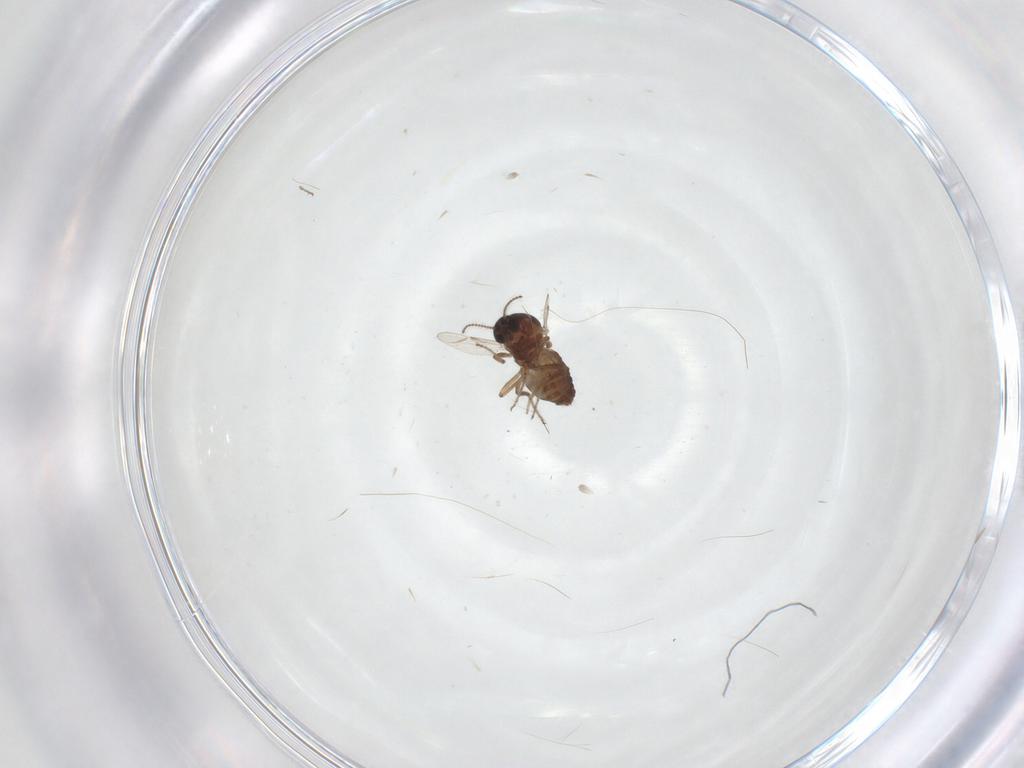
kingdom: Animalia
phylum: Arthropoda
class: Insecta
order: Diptera
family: Ceratopogonidae
